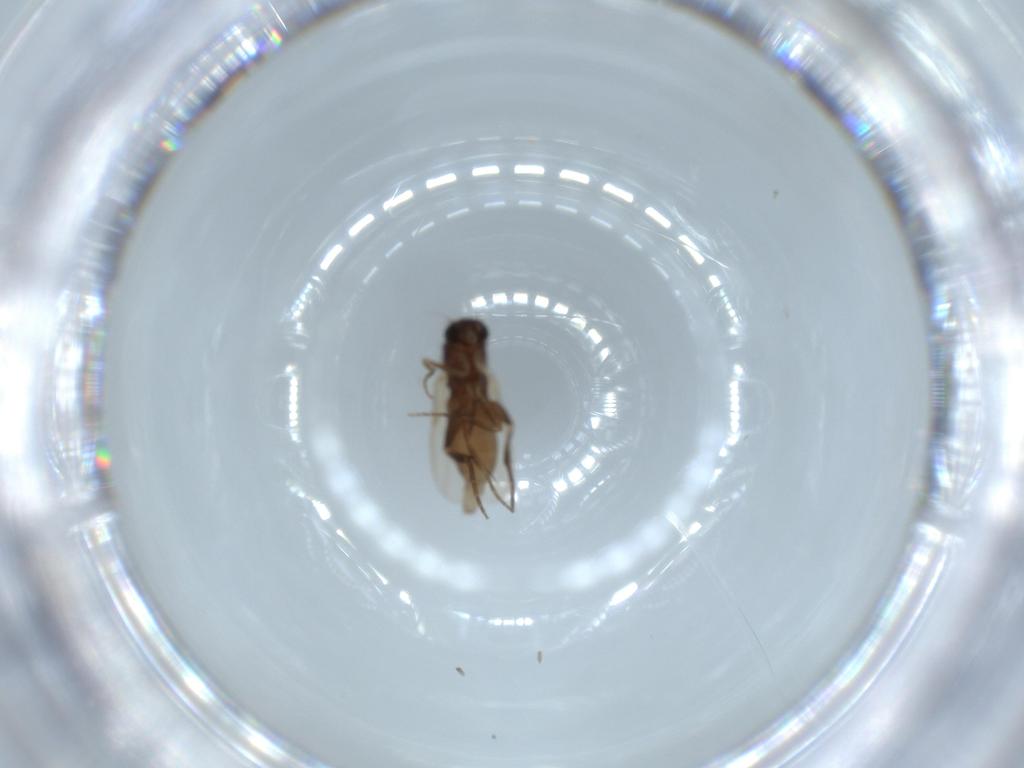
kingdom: Animalia
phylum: Arthropoda
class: Insecta
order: Diptera
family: Phoridae
